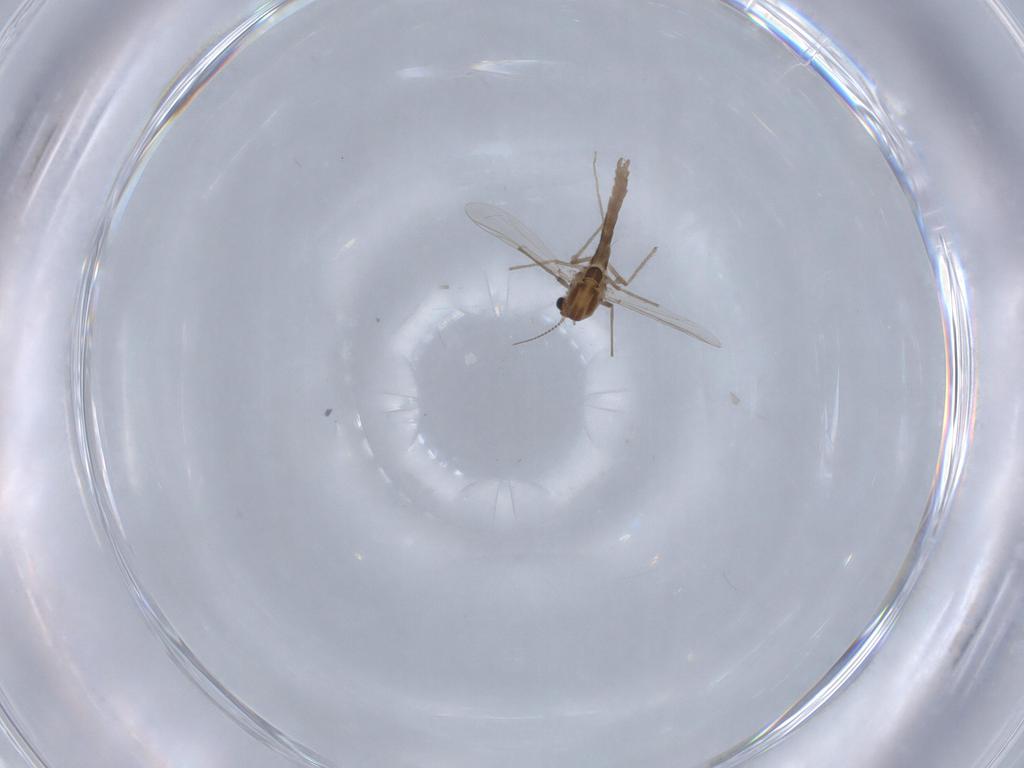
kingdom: Animalia
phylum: Arthropoda
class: Insecta
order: Diptera
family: Chironomidae
